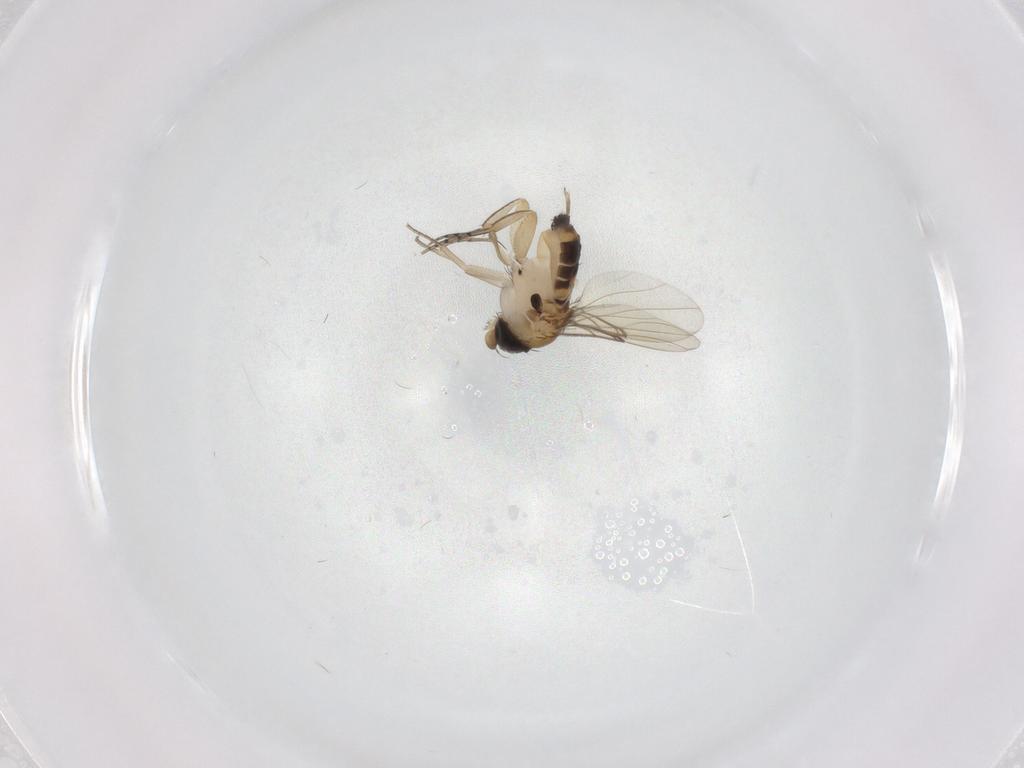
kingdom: Animalia
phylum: Arthropoda
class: Insecta
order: Diptera
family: Phoridae
